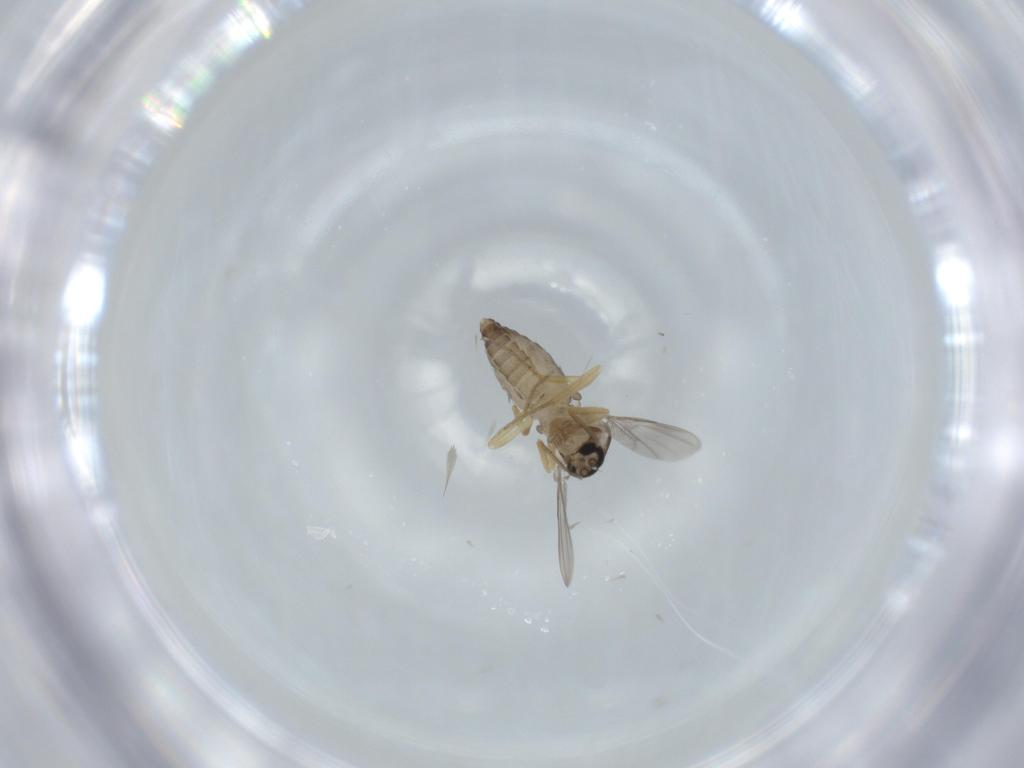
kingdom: Animalia
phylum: Arthropoda
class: Insecta
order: Diptera
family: Ceratopogonidae
